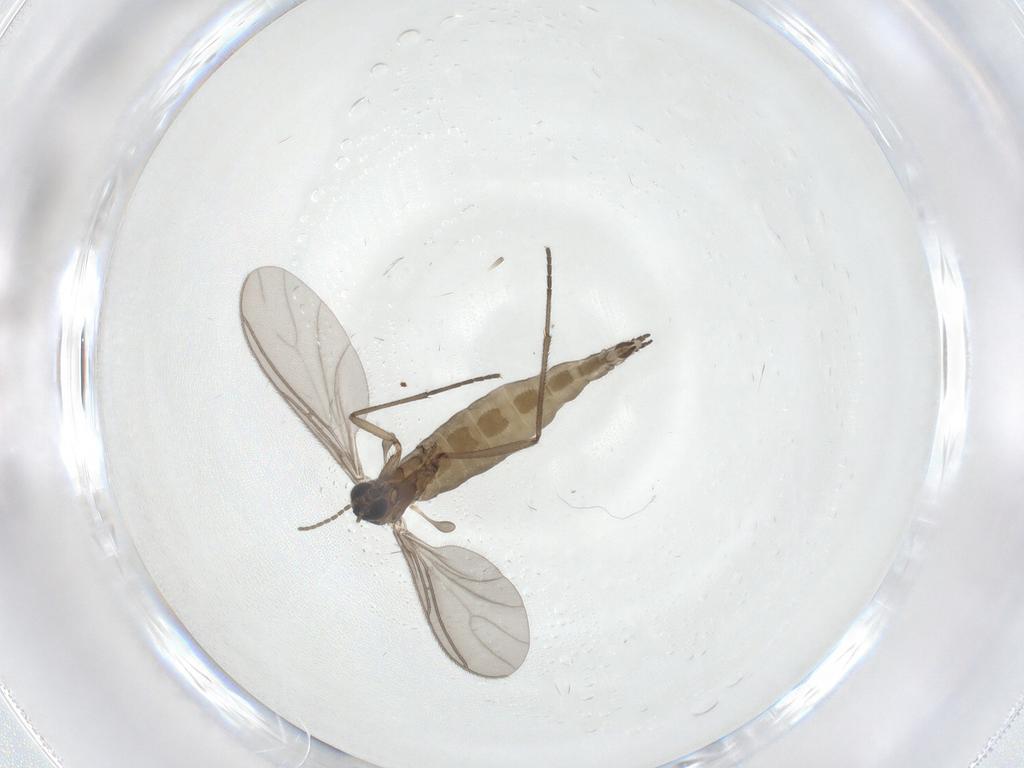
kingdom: Animalia
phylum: Arthropoda
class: Insecta
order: Diptera
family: Sciaridae
